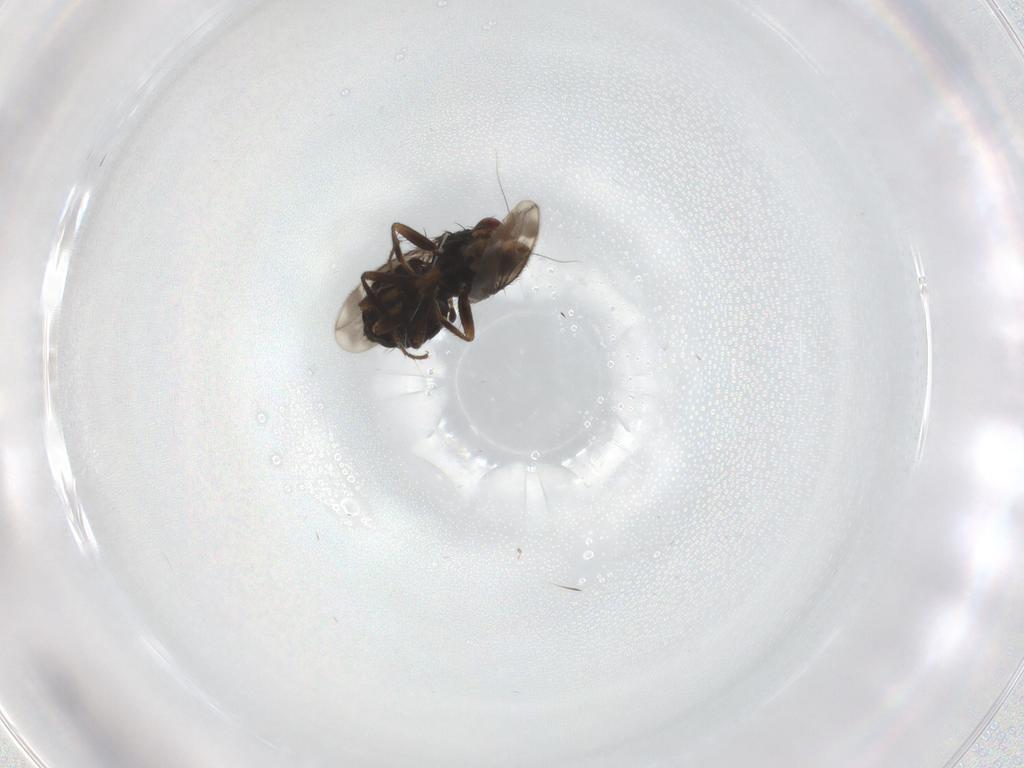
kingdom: Animalia
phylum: Arthropoda
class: Insecta
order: Diptera
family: Sphaeroceridae
